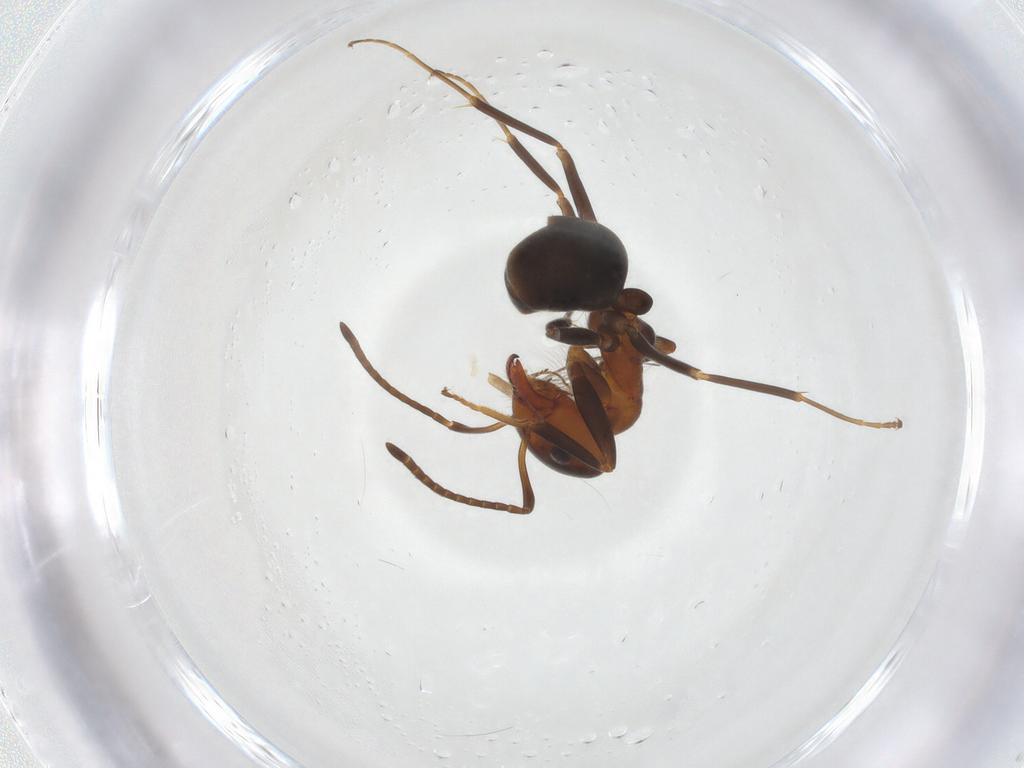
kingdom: Animalia
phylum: Arthropoda
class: Insecta
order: Hymenoptera
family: Formicidae
